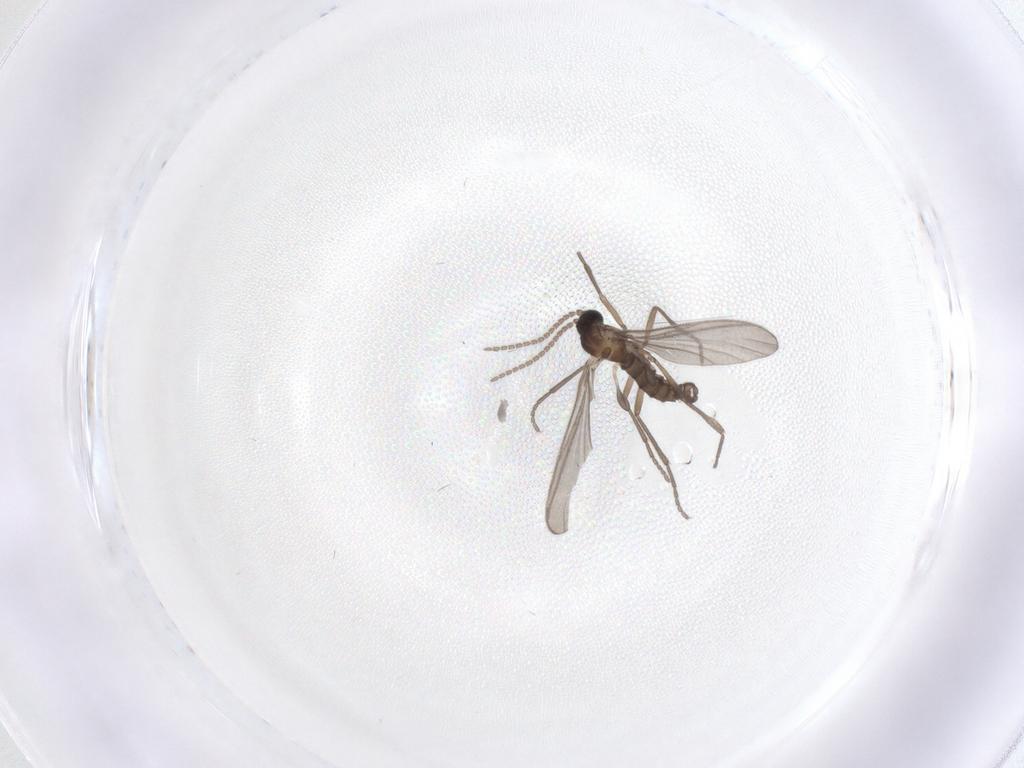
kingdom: Animalia
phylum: Arthropoda
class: Insecta
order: Diptera
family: Sciaridae
